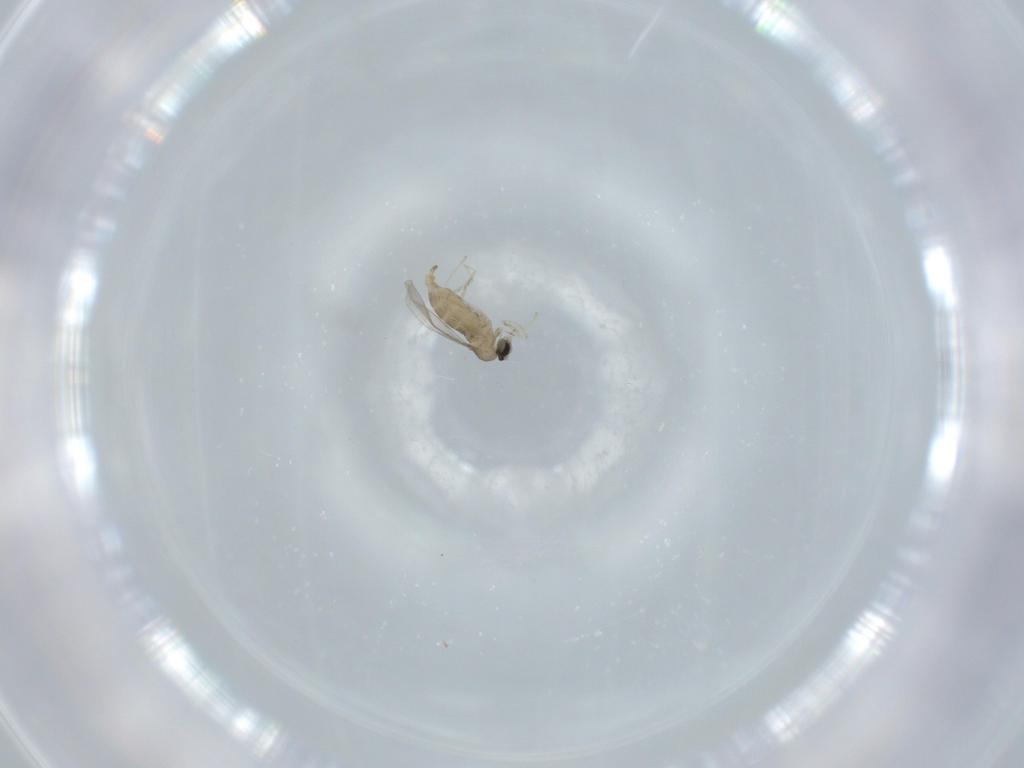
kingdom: Animalia
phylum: Arthropoda
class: Insecta
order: Diptera
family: Cecidomyiidae
